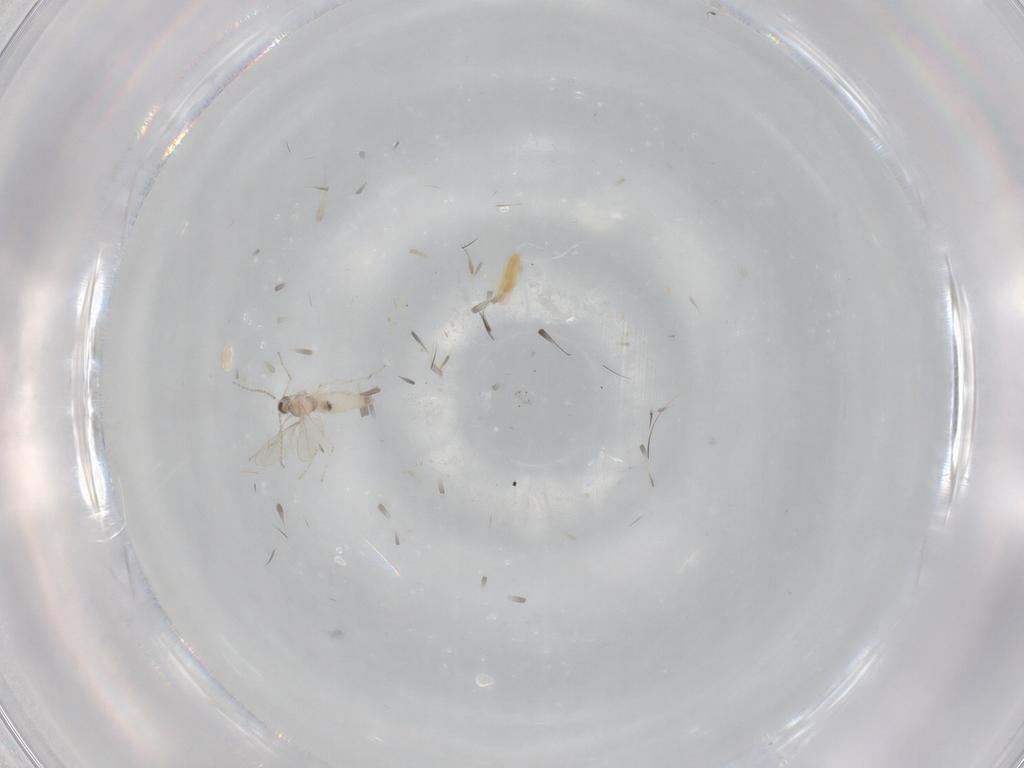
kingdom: Animalia
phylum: Arthropoda
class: Insecta
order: Diptera
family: Cecidomyiidae
